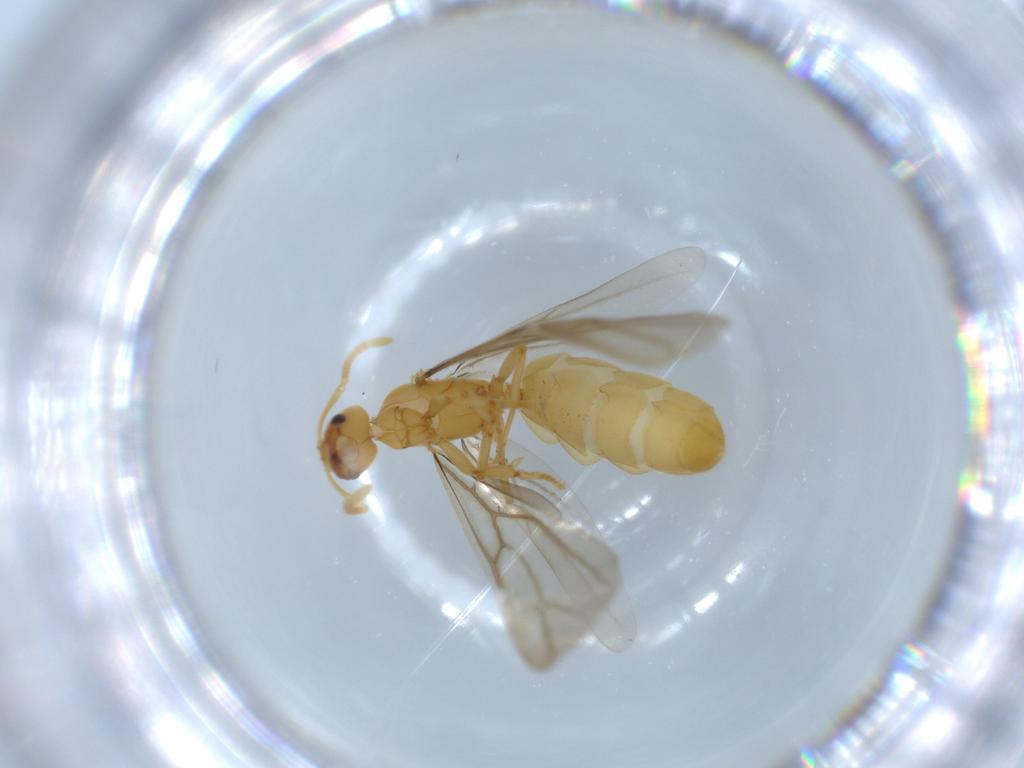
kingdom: Animalia
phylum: Arthropoda
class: Insecta
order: Hymenoptera
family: Formicidae
